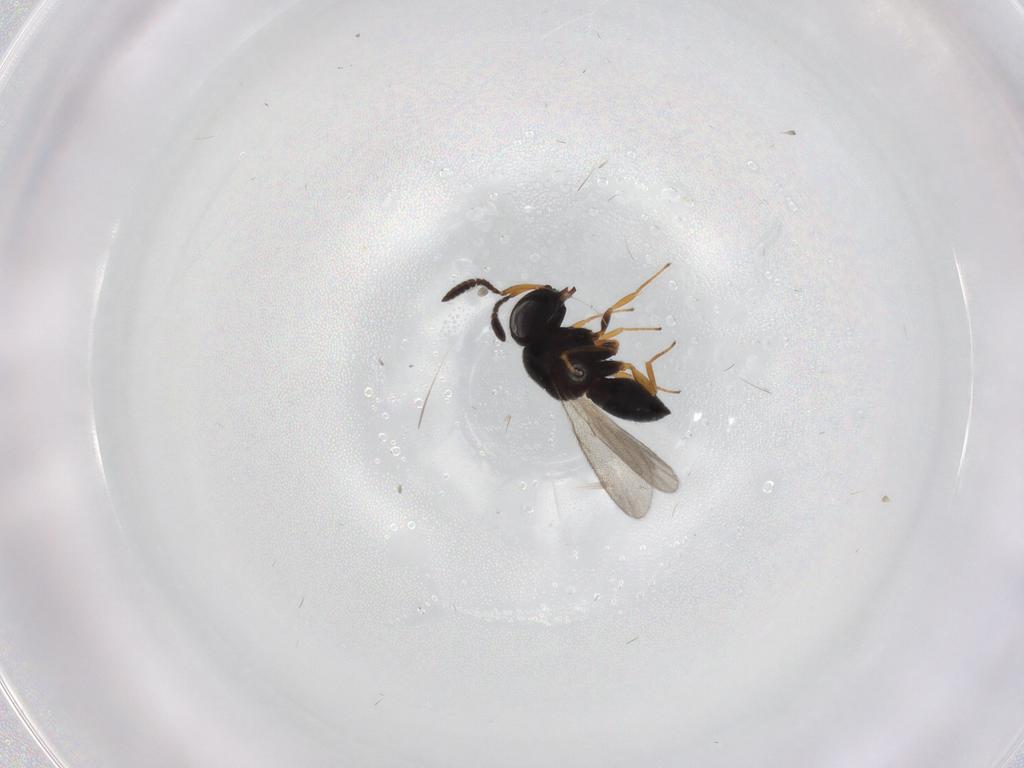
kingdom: Animalia
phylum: Arthropoda
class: Insecta
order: Hymenoptera
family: Scelionidae
